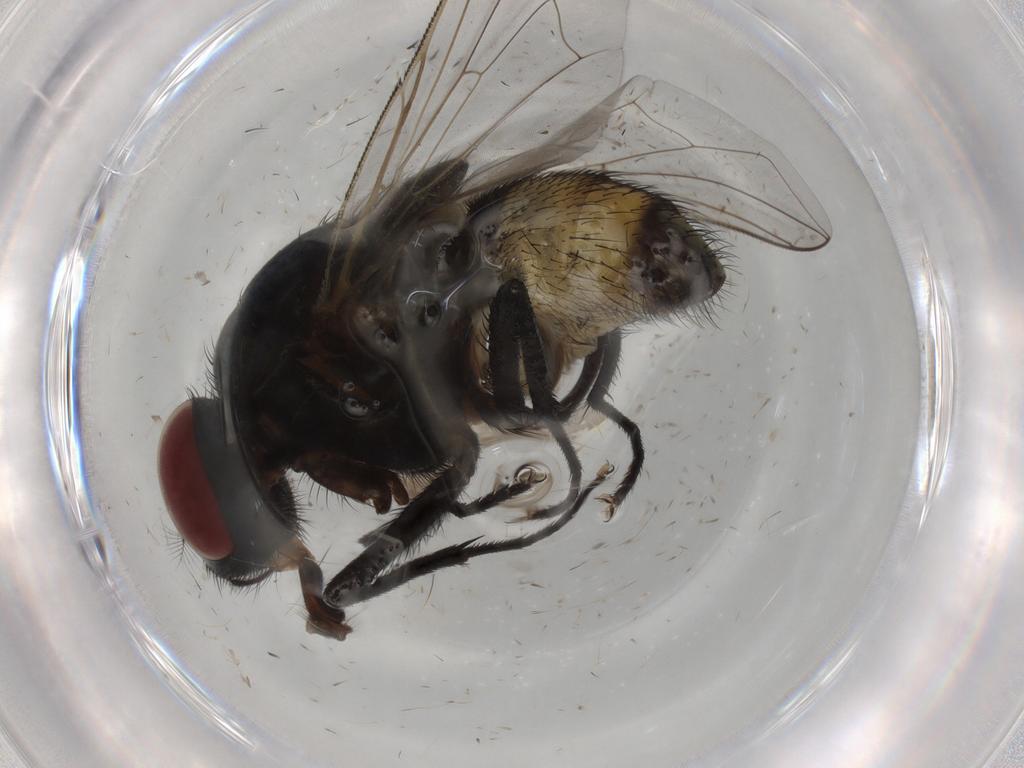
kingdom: Animalia
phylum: Arthropoda
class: Insecta
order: Diptera
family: Muscidae
